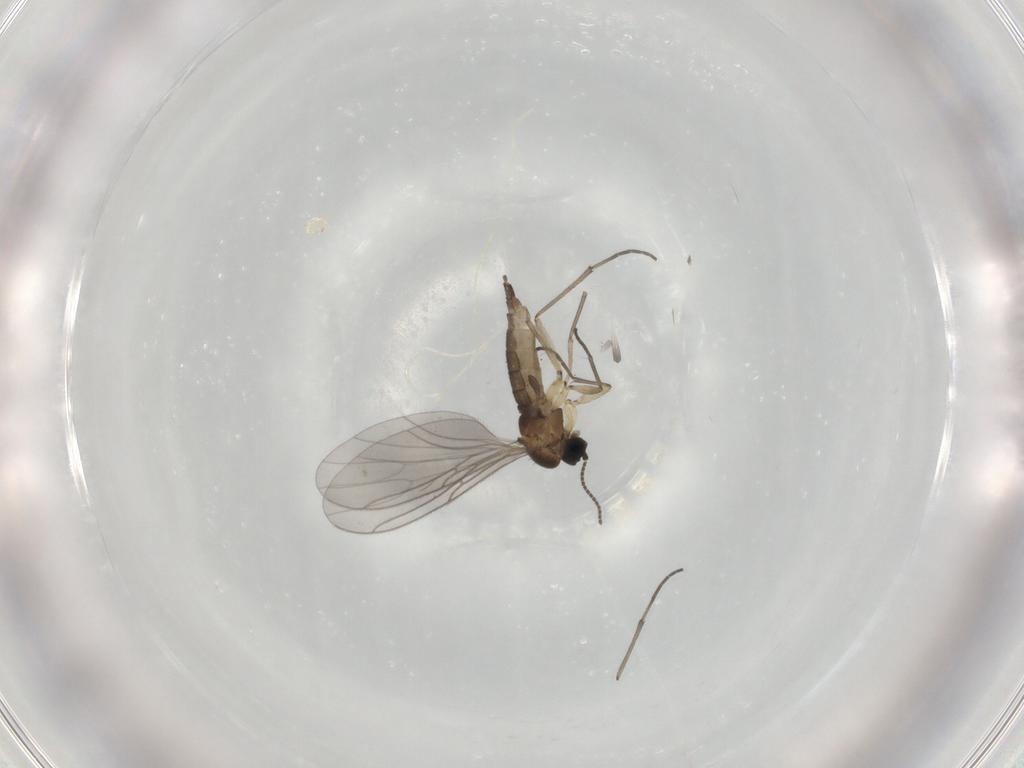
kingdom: Animalia
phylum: Arthropoda
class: Insecta
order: Diptera
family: Sciaridae
